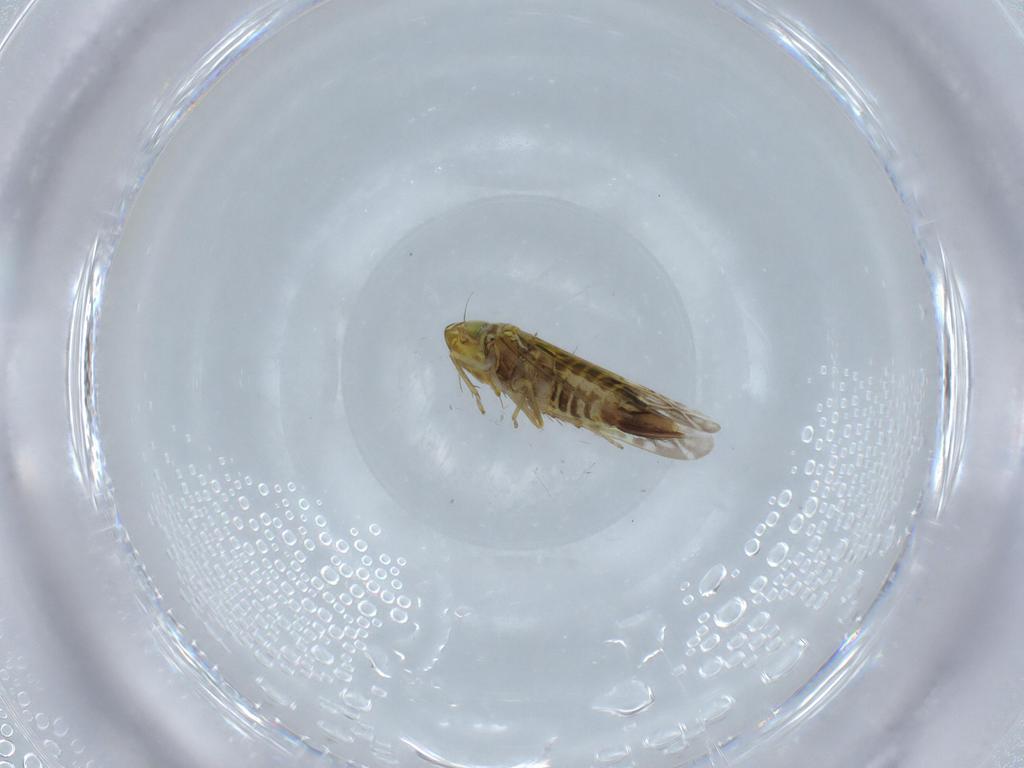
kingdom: Animalia
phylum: Arthropoda
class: Insecta
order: Hemiptera
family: Cicadellidae
